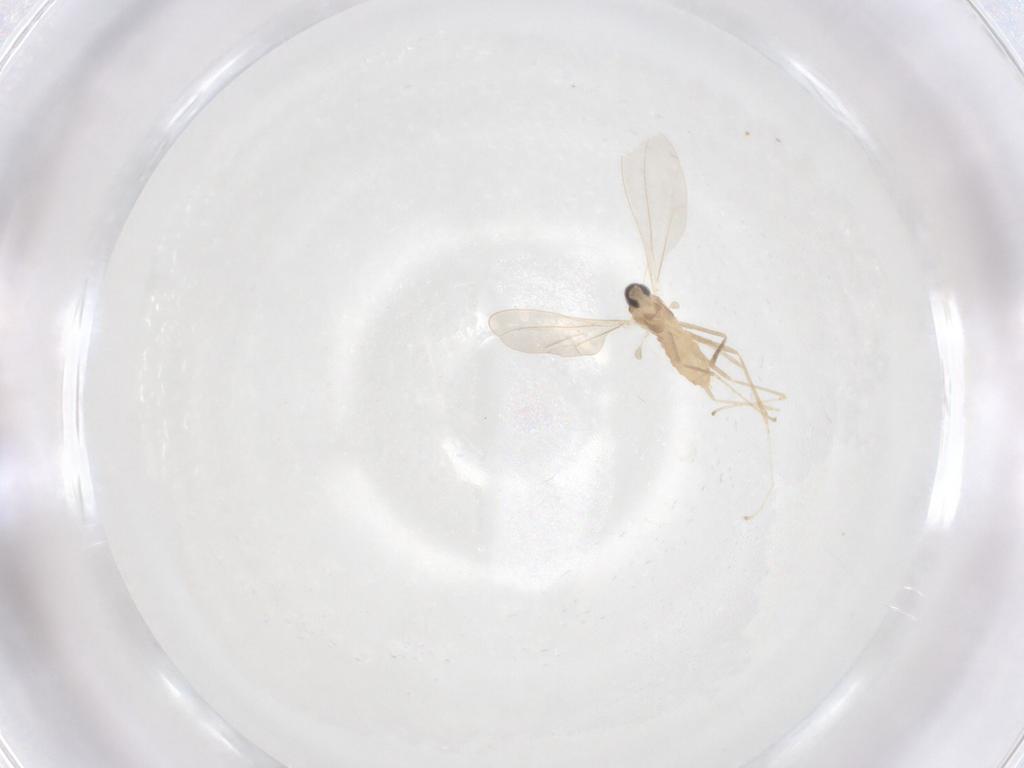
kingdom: Animalia
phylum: Arthropoda
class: Insecta
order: Diptera
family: Cecidomyiidae
